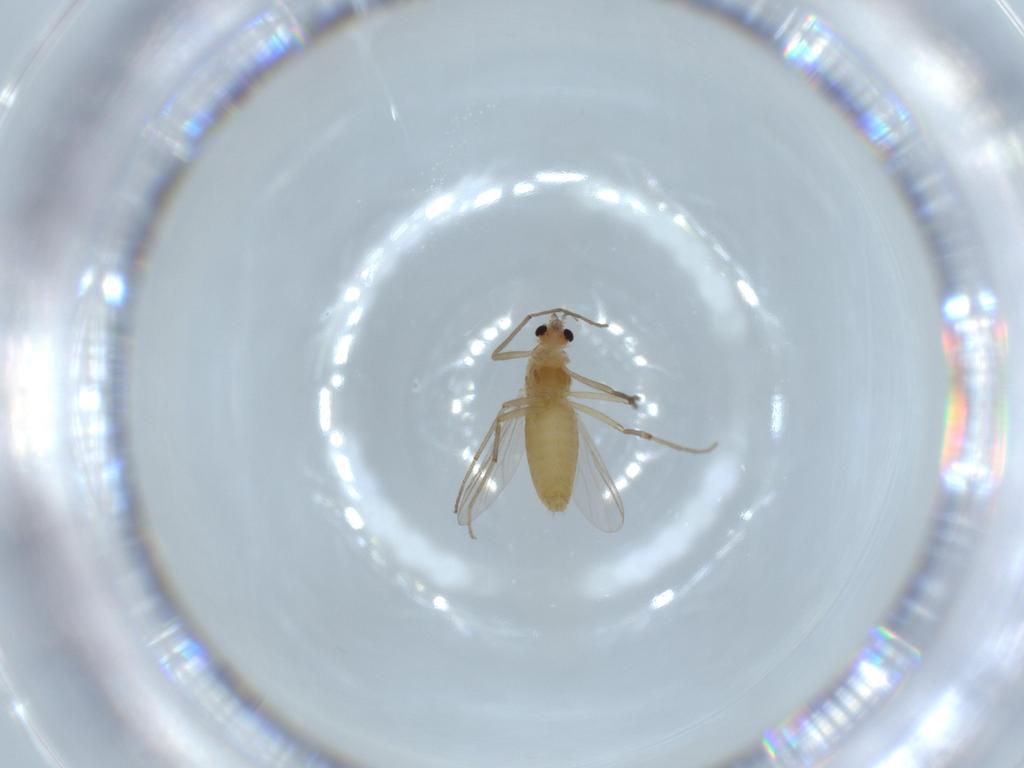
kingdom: Animalia
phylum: Arthropoda
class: Insecta
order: Diptera
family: Chironomidae
